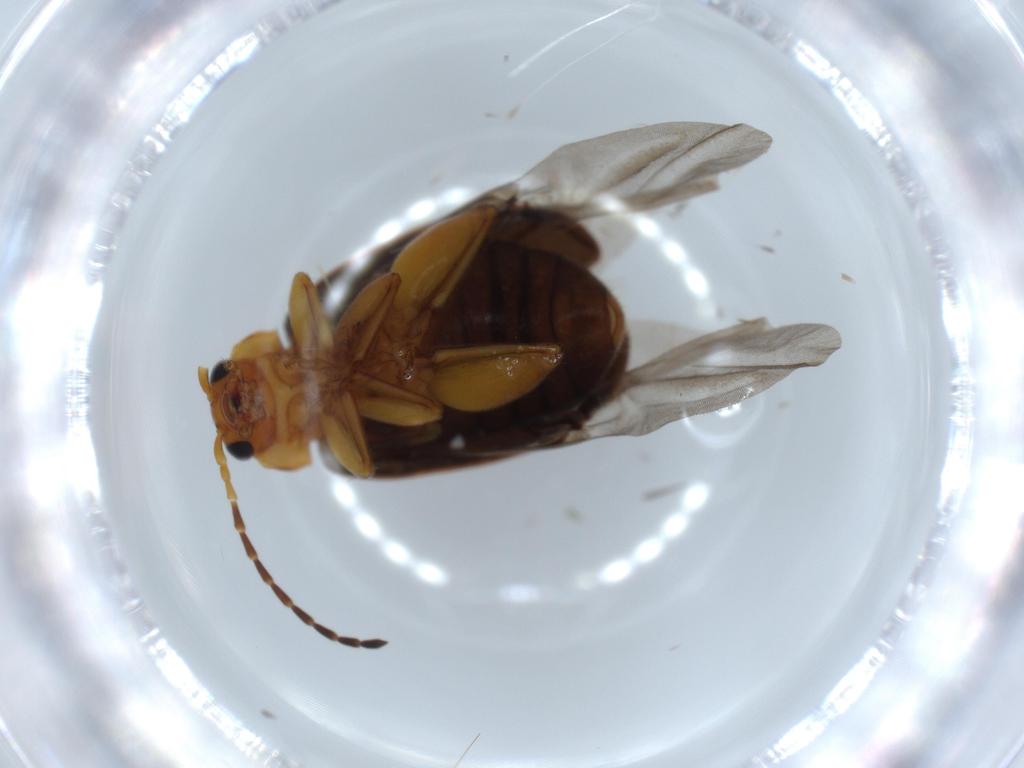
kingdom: Animalia
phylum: Arthropoda
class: Insecta
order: Coleoptera
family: Chrysomelidae
